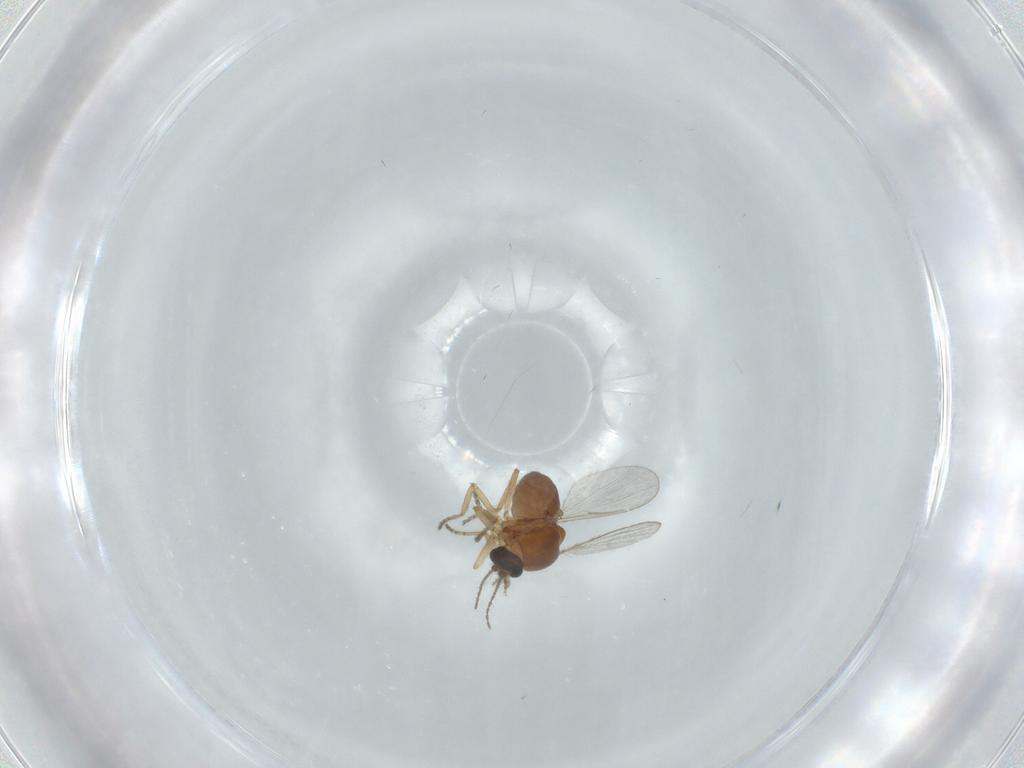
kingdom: Animalia
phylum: Arthropoda
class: Insecta
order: Diptera
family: Ceratopogonidae
